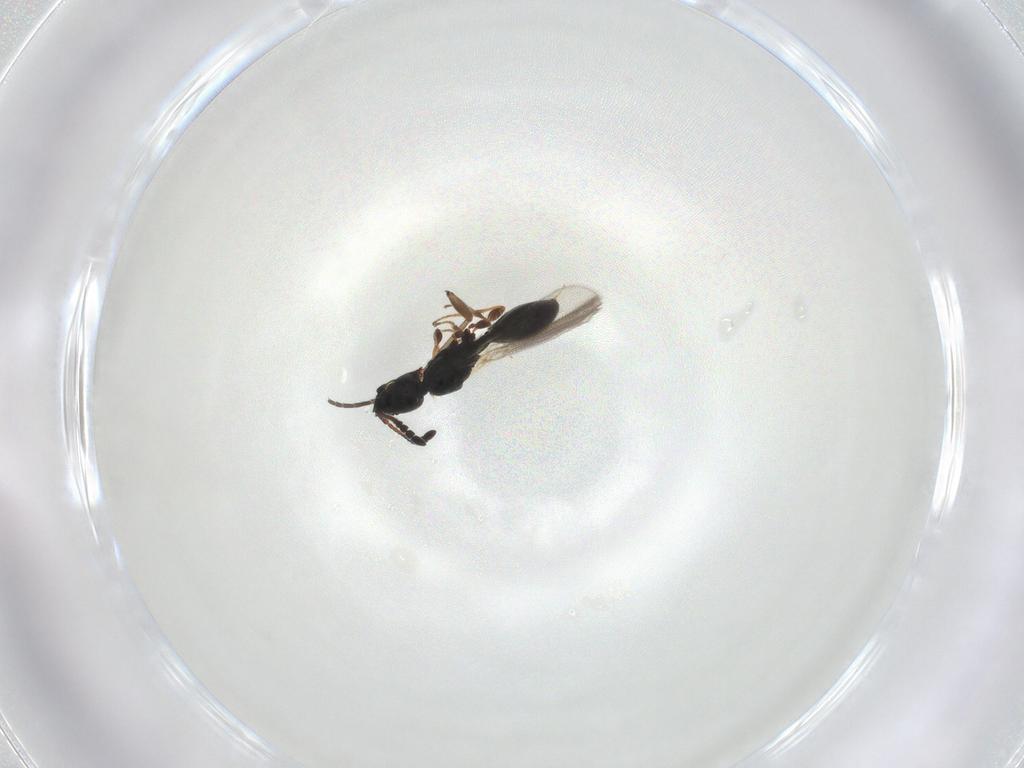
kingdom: Animalia
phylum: Arthropoda
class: Insecta
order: Hymenoptera
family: Diapriidae
